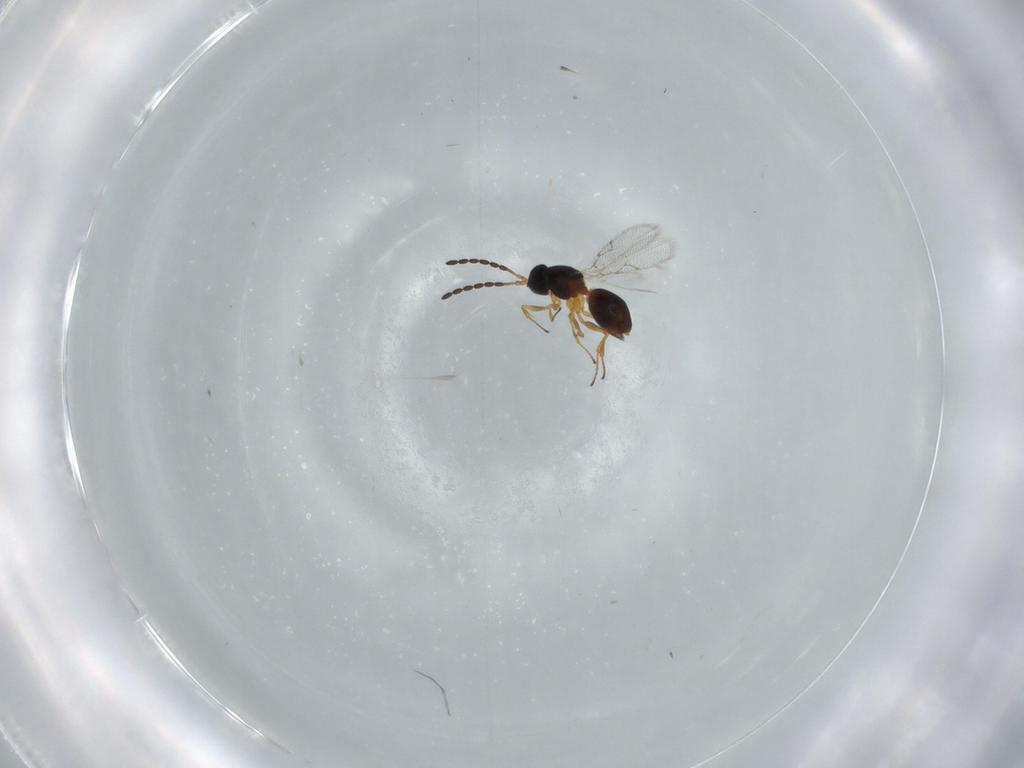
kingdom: Animalia
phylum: Arthropoda
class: Insecta
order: Hymenoptera
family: Figitidae
